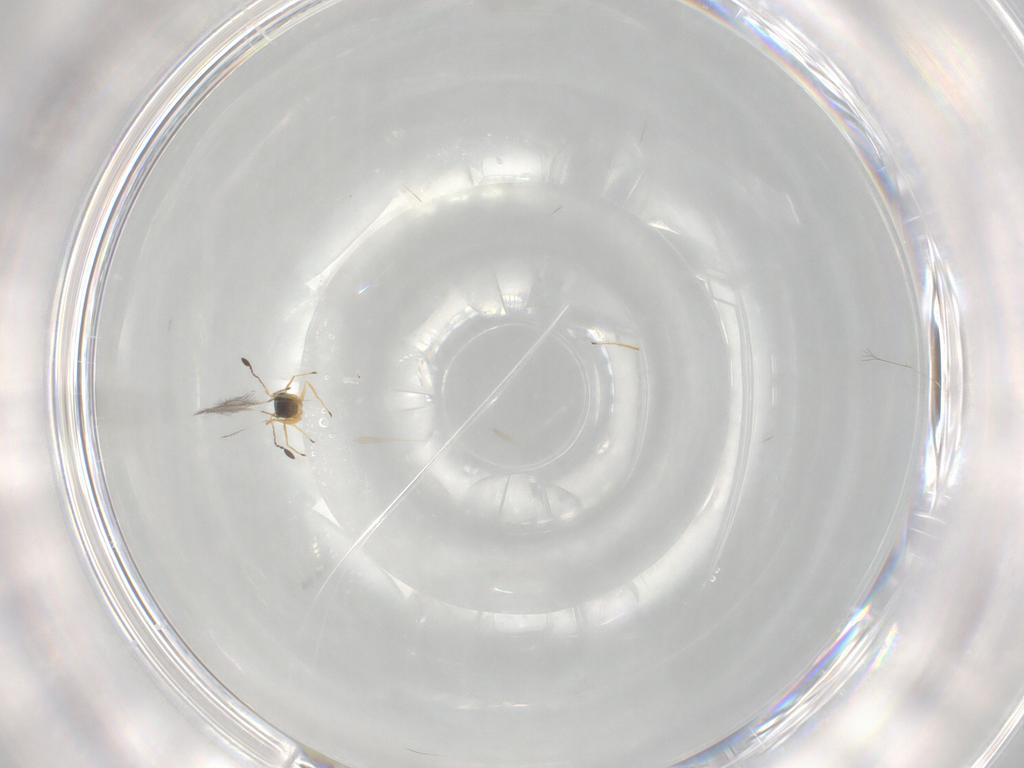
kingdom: Animalia
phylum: Arthropoda
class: Insecta
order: Hymenoptera
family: Mymaridae
